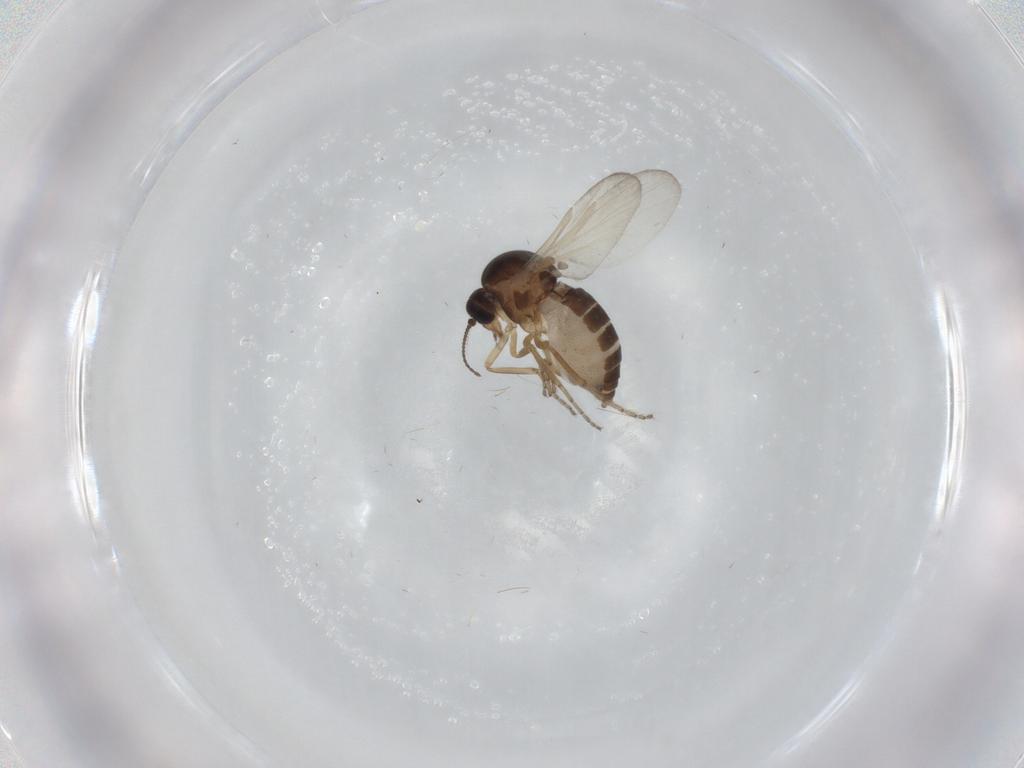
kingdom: Animalia
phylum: Arthropoda
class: Insecta
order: Diptera
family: Ceratopogonidae
